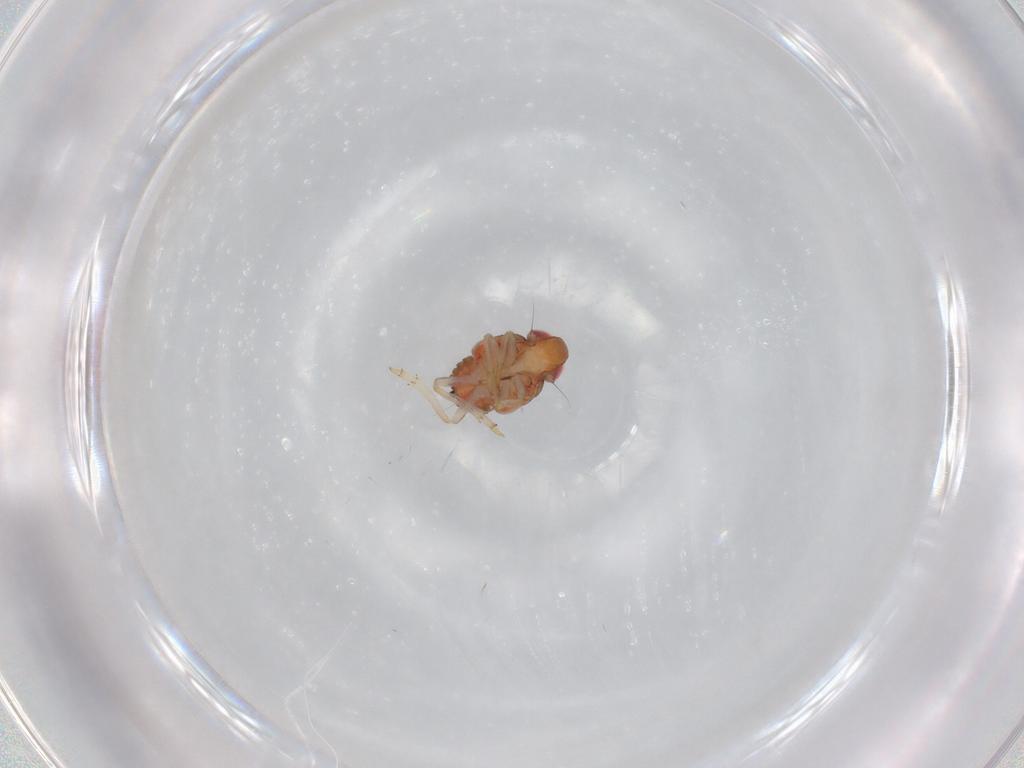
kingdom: Animalia
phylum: Arthropoda
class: Insecta
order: Hemiptera
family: Issidae
